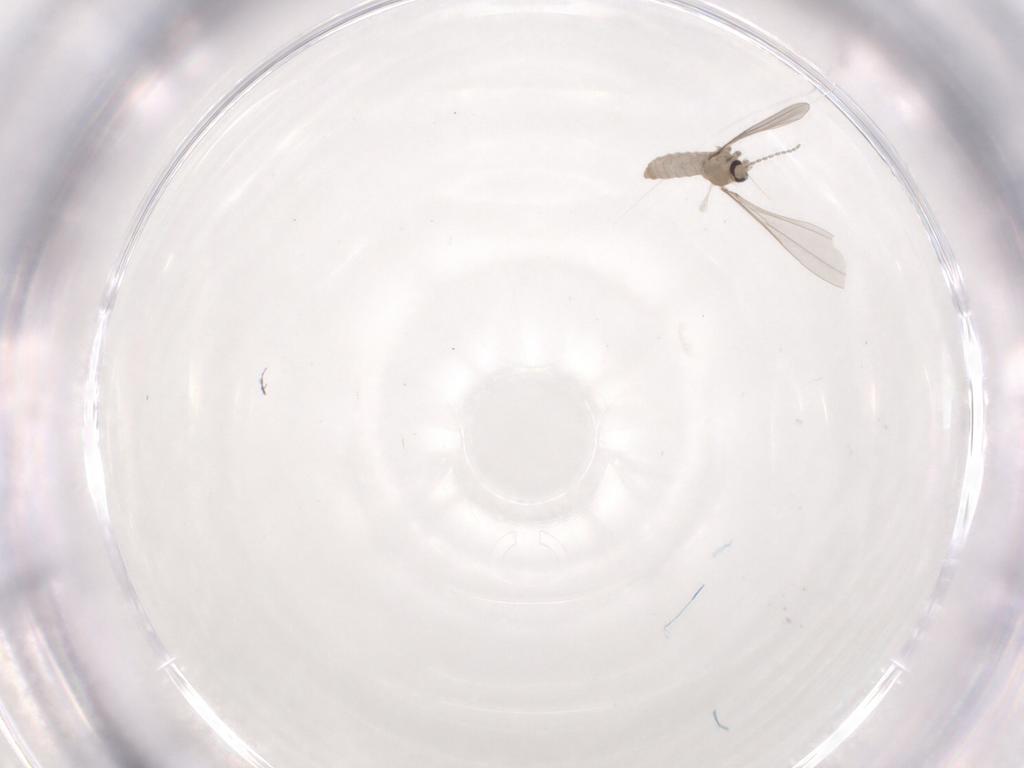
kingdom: Animalia
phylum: Arthropoda
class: Insecta
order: Diptera
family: Cecidomyiidae
